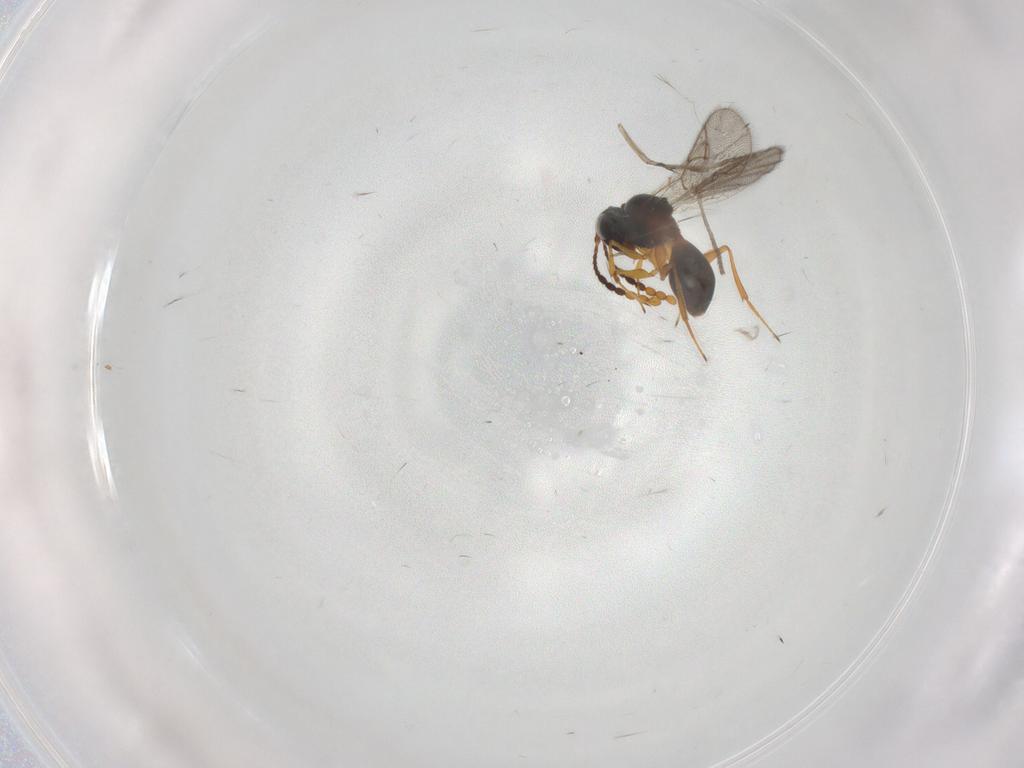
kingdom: Animalia
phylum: Arthropoda
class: Insecta
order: Hymenoptera
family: Figitidae
